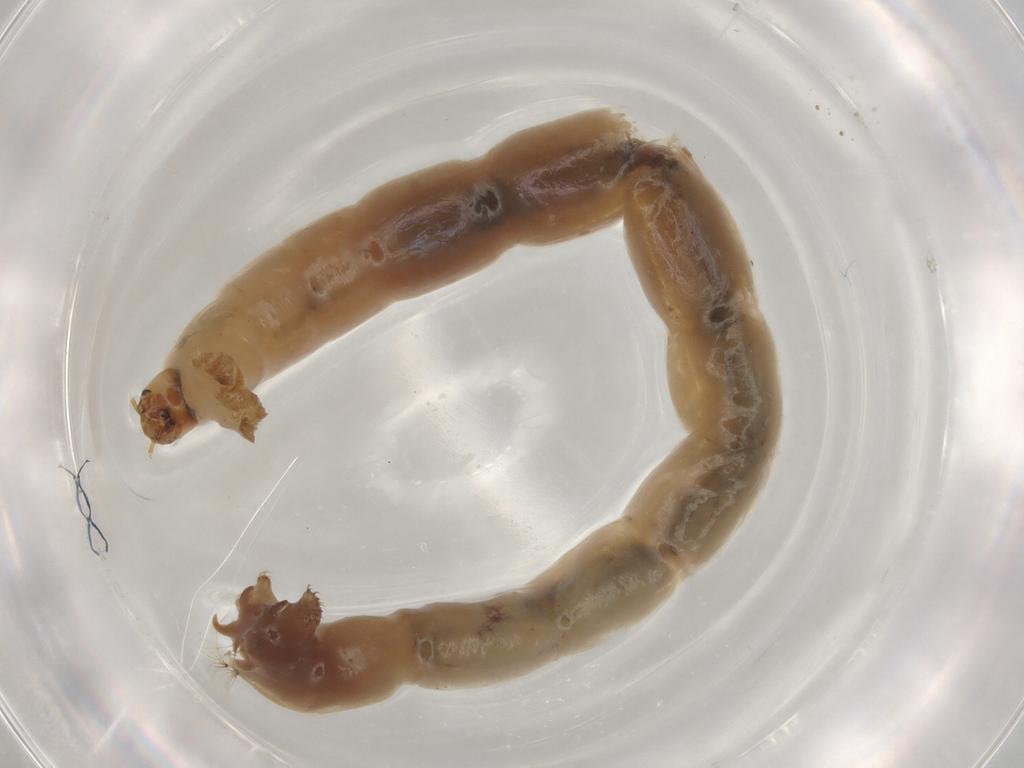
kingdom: Animalia
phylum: Arthropoda
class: Insecta
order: Diptera
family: Chironomidae
